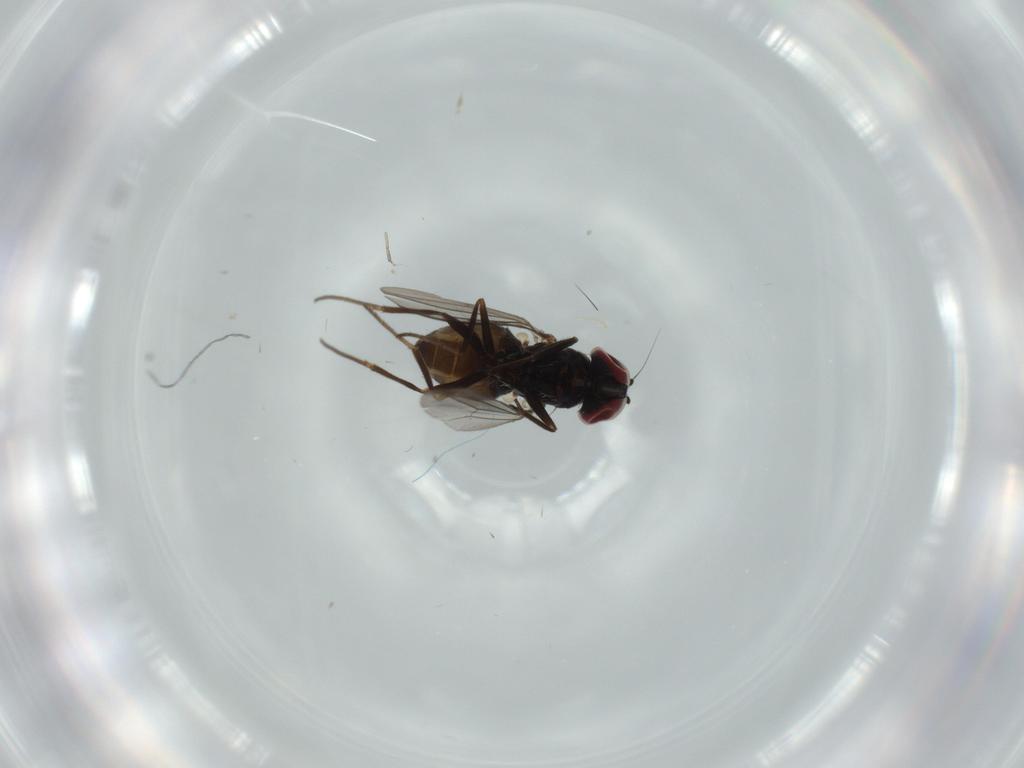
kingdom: Animalia
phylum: Arthropoda
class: Insecta
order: Diptera
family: Dolichopodidae
